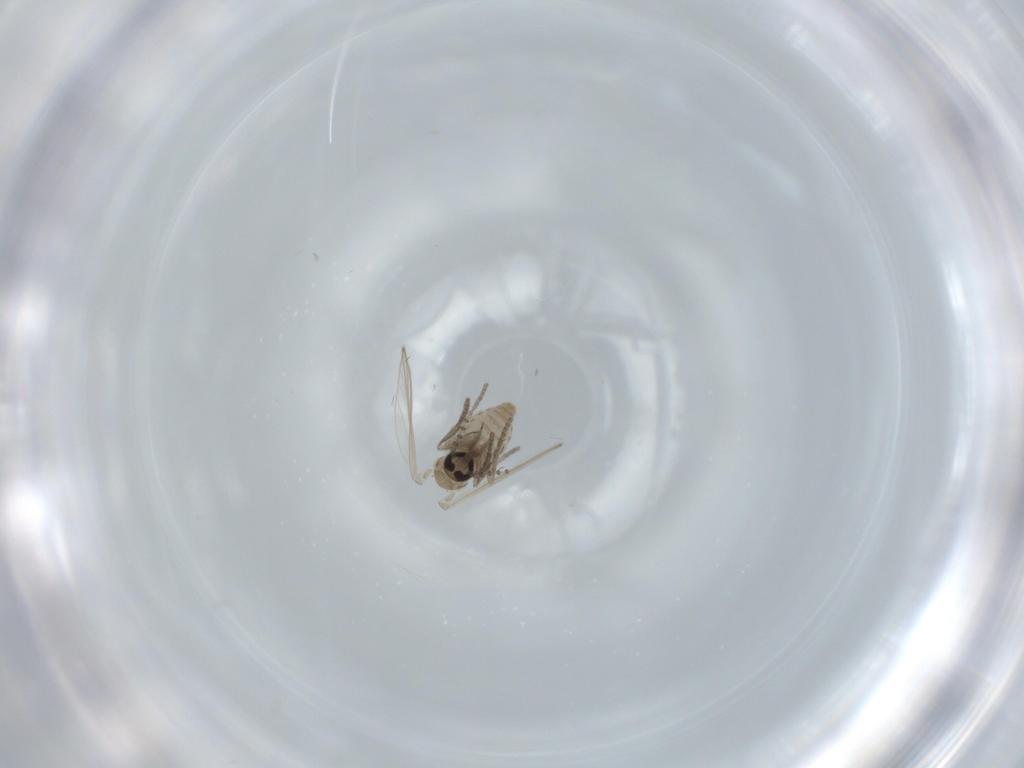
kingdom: Animalia
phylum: Arthropoda
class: Insecta
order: Diptera
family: Psychodidae
